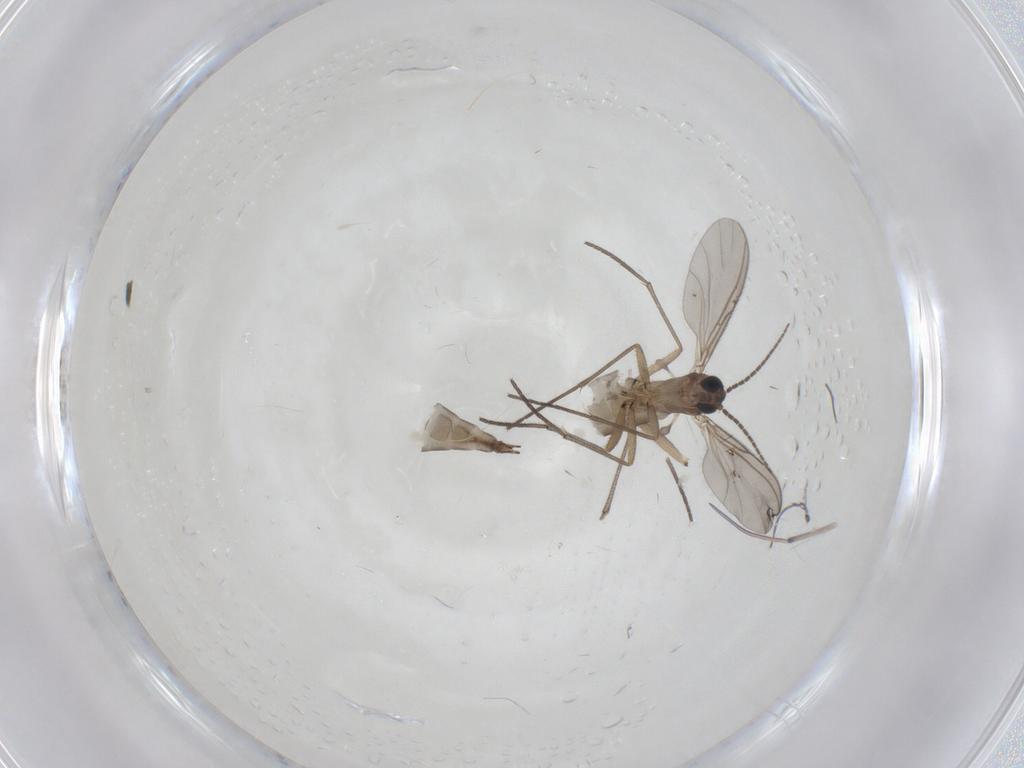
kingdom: Animalia
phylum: Arthropoda
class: Insecta
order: Diptera
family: Sciaridae
